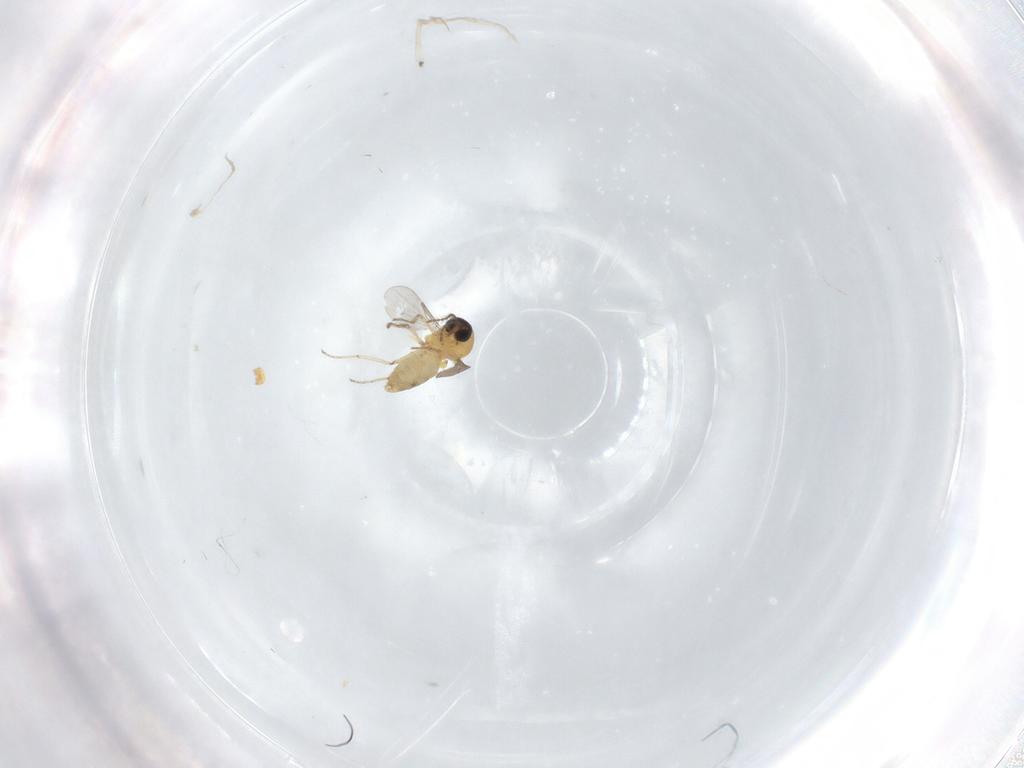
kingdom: Animalia
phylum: Arthropoda
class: Insecta
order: Diptera
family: Ceratopogonidae
